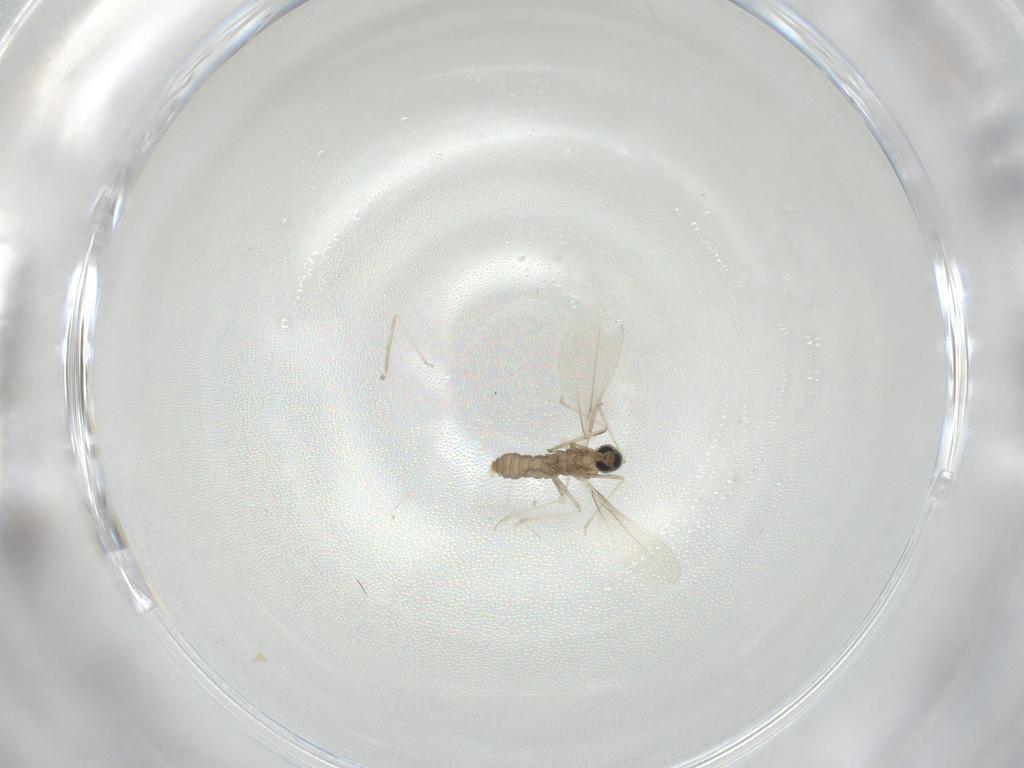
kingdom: Animalia
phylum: Arthropoda
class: Insecta
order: Diptera
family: Cecidomyiidae
